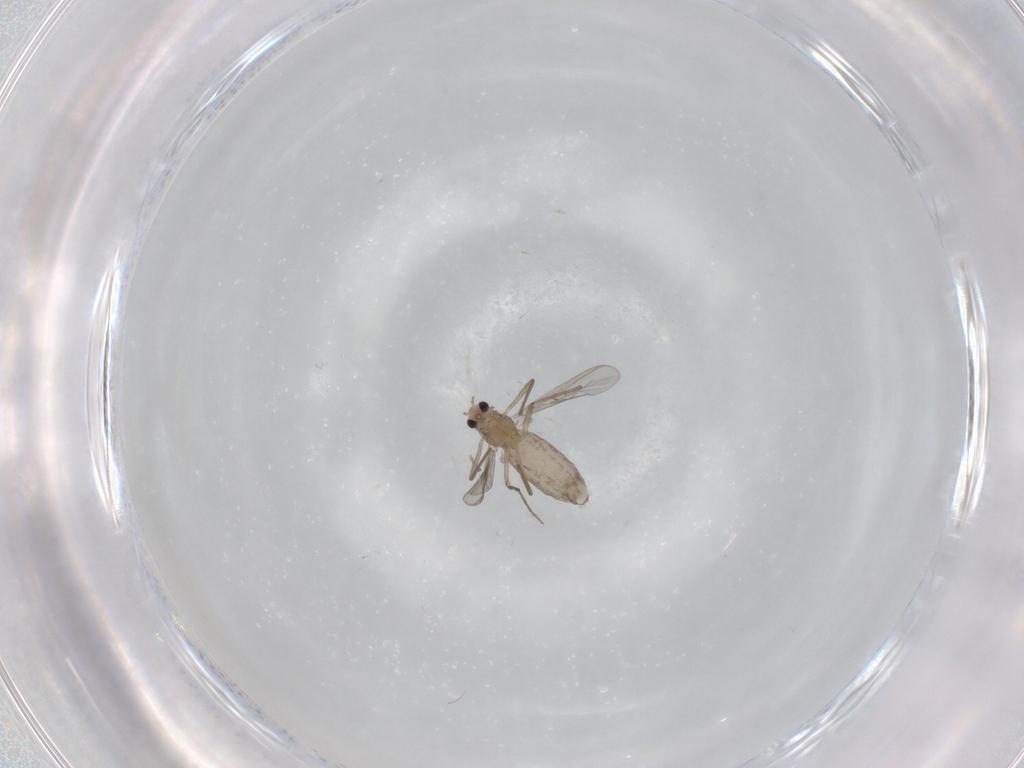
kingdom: Animalia
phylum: Arthropoda
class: Insecta
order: Diptera
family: Chironomidae
